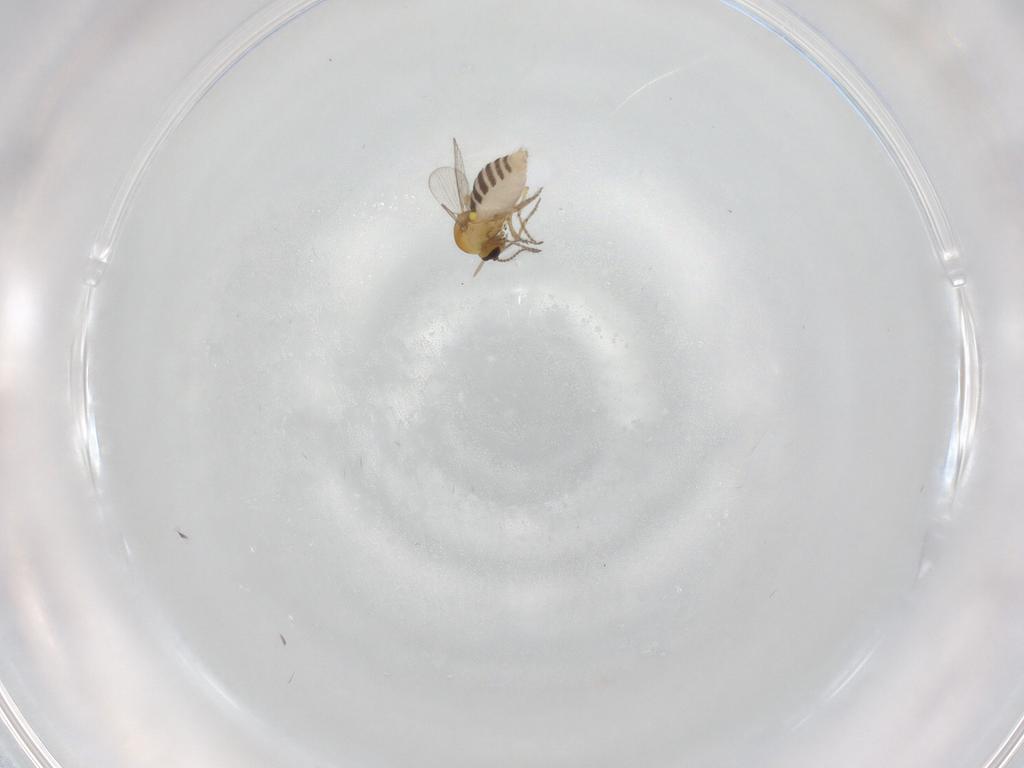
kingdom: Animalia
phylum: Arthropoda
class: Insecta
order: Diptera
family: Ceratopogonidae
